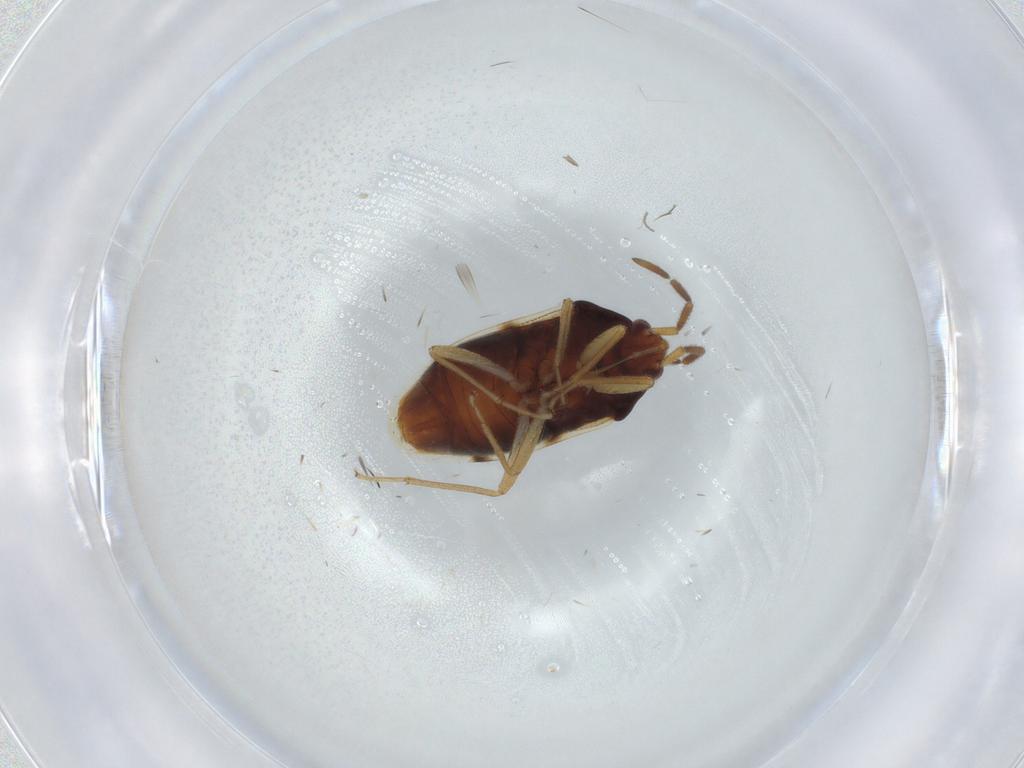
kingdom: Animalia
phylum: Arthropoda
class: Insecta
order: Hemiptera
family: Rhyparochromidae
